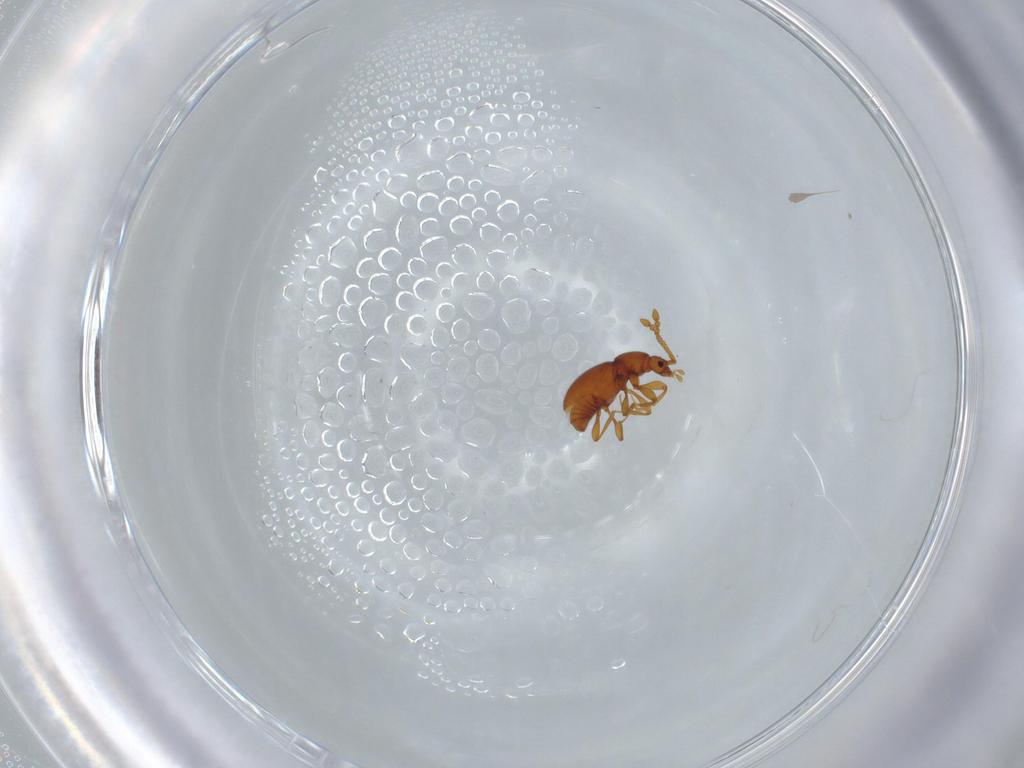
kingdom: Animalia
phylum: Arthropoda
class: Insecta
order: Coleoptera
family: Staphylinidae
